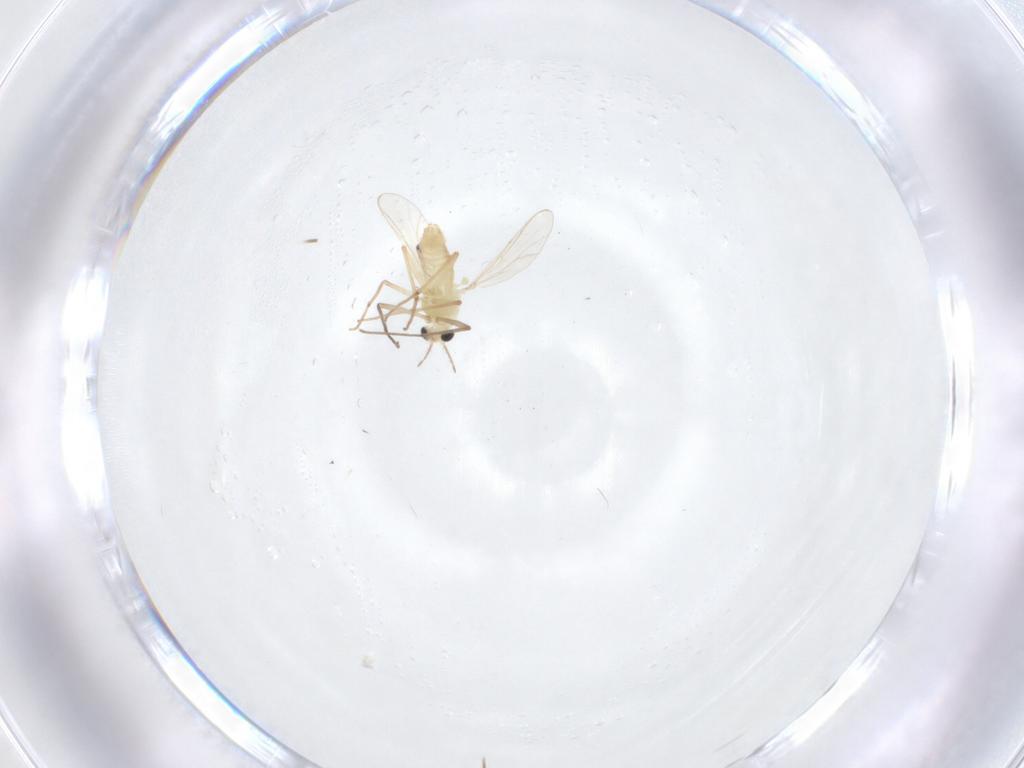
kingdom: Animalia
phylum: Arthropoda
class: Insecta
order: Diptera
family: Chironomidae
